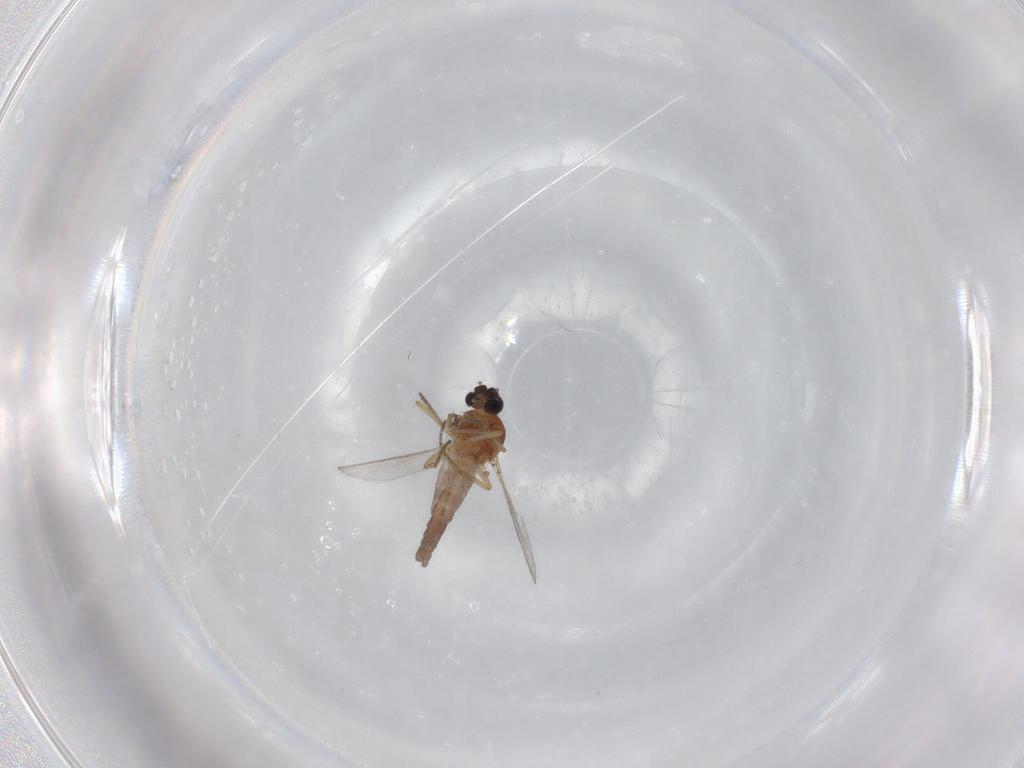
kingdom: Animalia
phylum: Arthropoda
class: Insecta
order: Diptera
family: Ceratopogonidae
